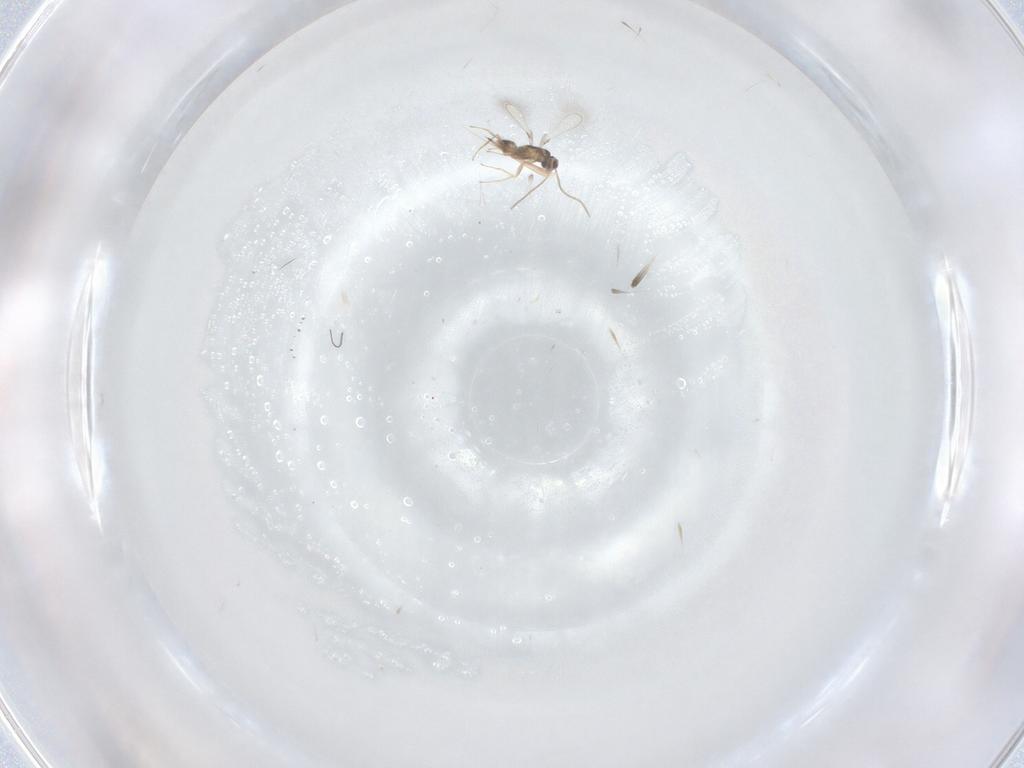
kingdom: Animalia
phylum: Arthropoda
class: Insecta
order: Hymenoptera
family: Mymaridae
